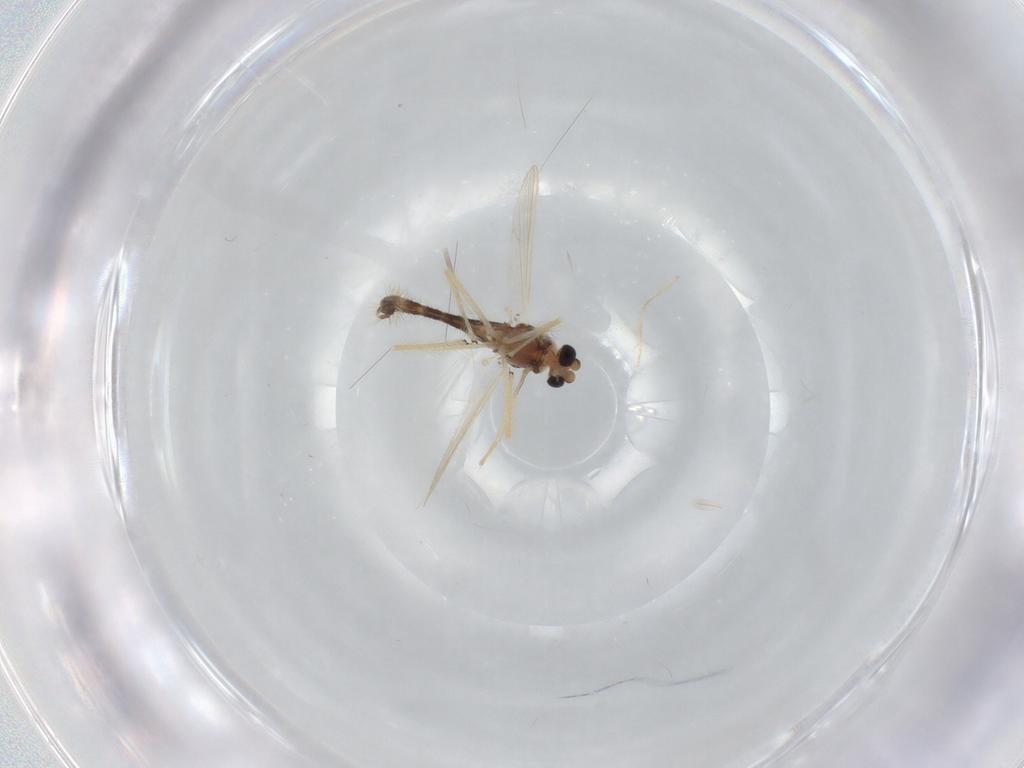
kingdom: Animalia
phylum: Arthropoda
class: Insecta
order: Diptera
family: Chironomidae
